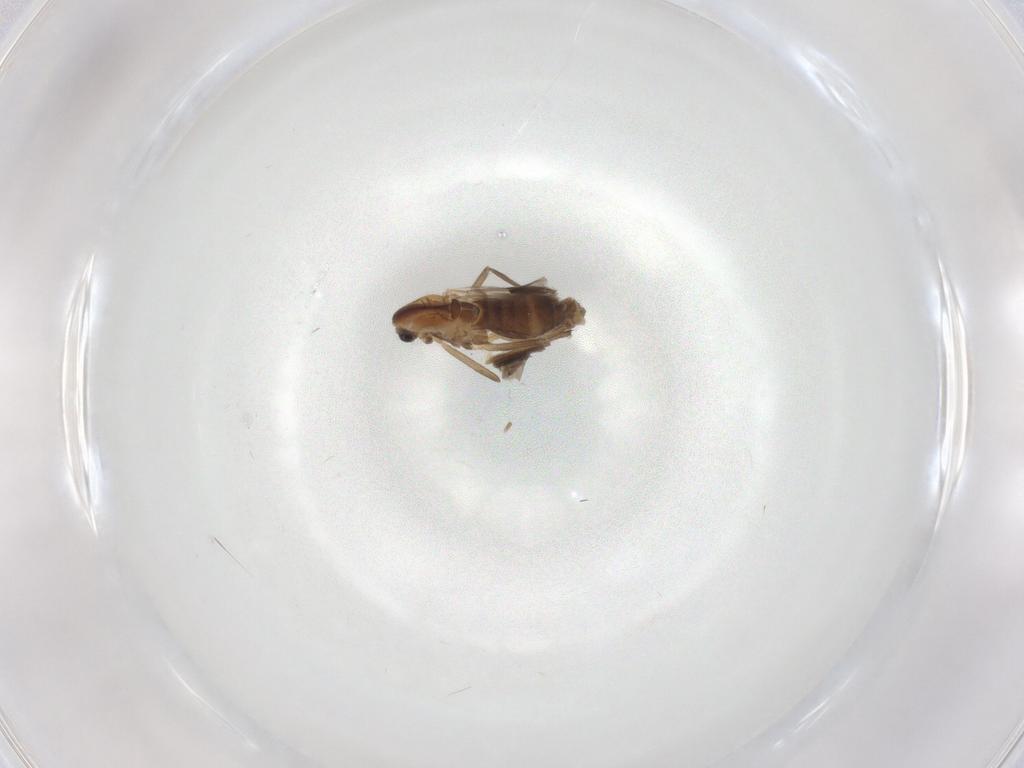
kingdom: Animalia
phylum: Arthropoda
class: Insecta
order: Diptera
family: Chironomidae
